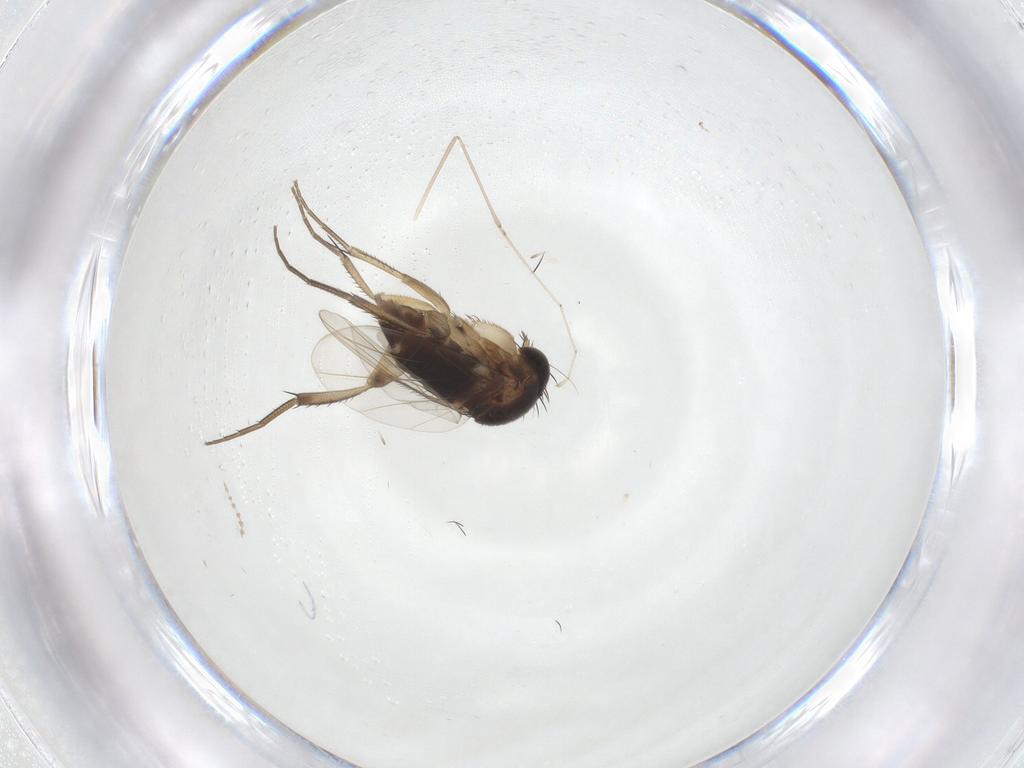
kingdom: Animalia
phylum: Arthropoda
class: Insecta
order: Diptera
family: Phoridae
